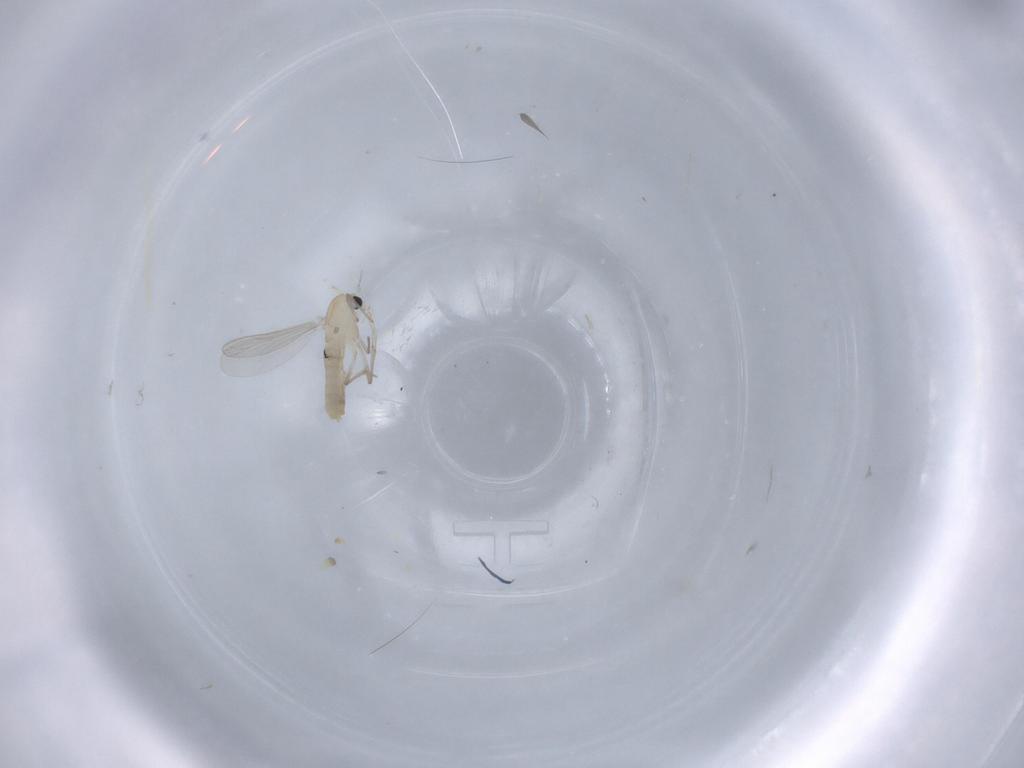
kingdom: Animalia
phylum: Arthropoda
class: Insecta
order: Diptera
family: Chironomidae
